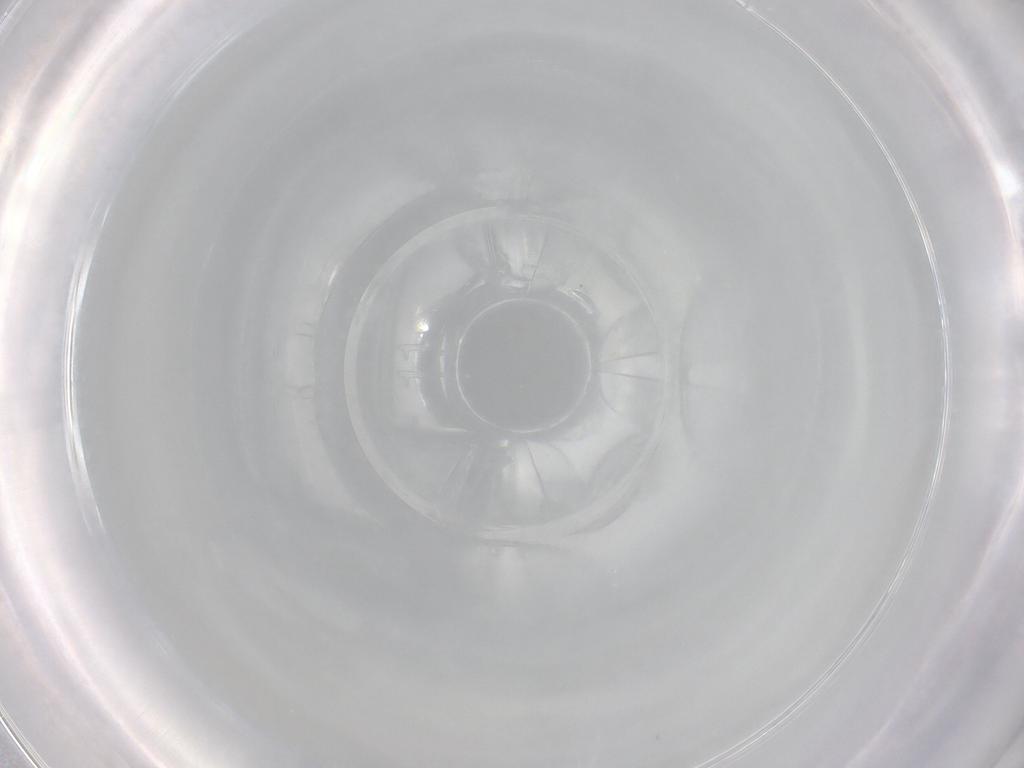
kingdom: Animalia
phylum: Arthropoda
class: Insecta
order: Diptera
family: Syrphidae
